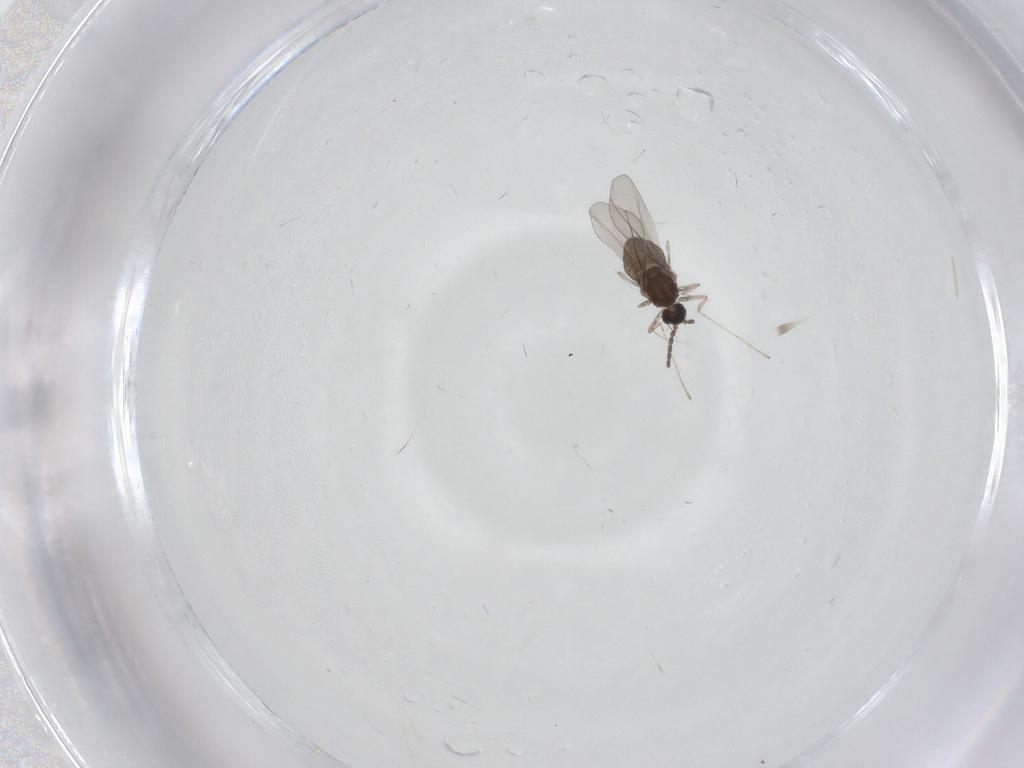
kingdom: Animalia
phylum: Arthropoda
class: Insecta
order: Diptera
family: Cecidomyiidae
